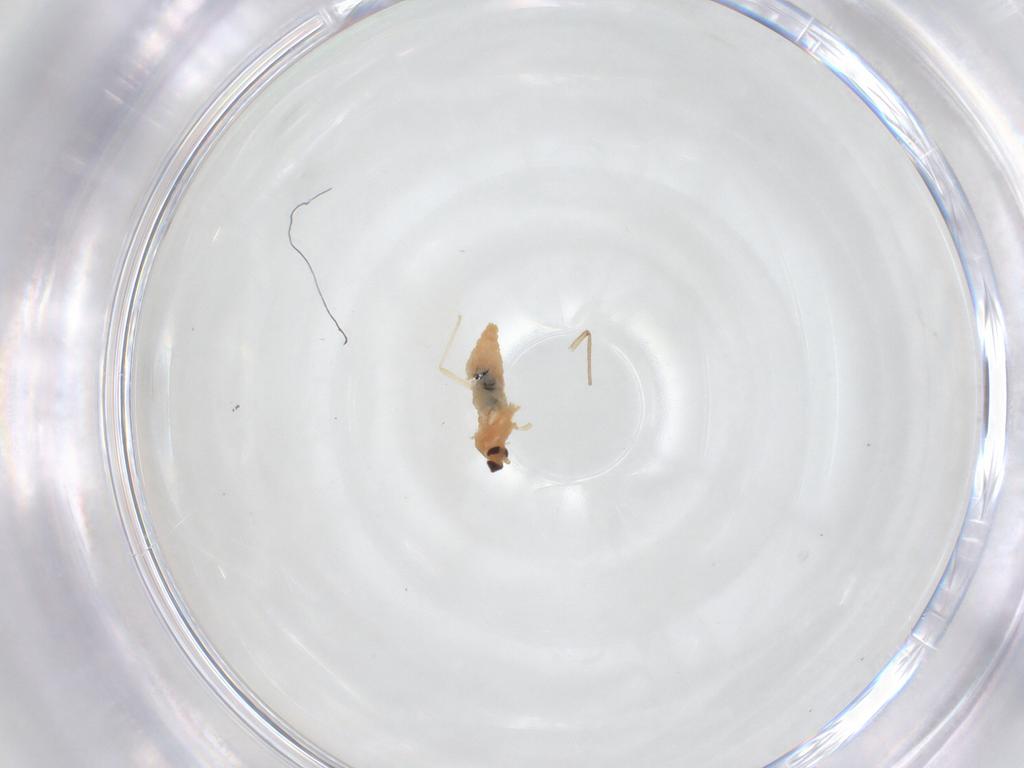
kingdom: Animalia
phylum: Arthropoda
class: Insecta
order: Diptera
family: Cecidomyiidae
